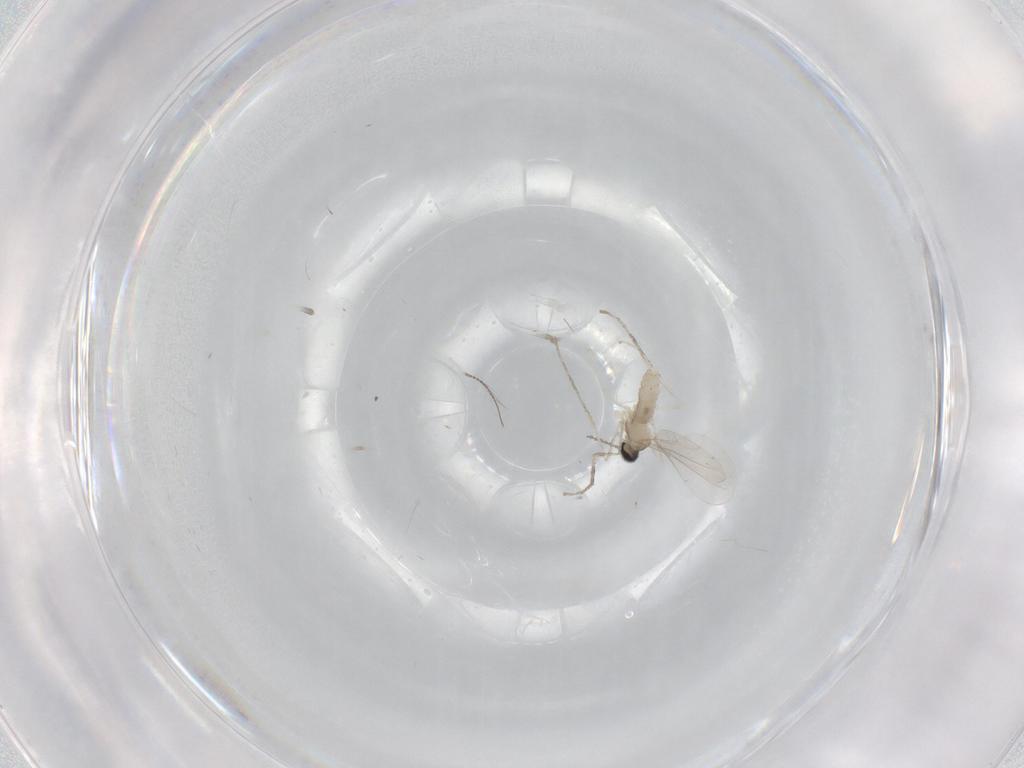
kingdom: Animalia
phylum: Arthropoda
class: Insecta
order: Diptera
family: Chironomidae
